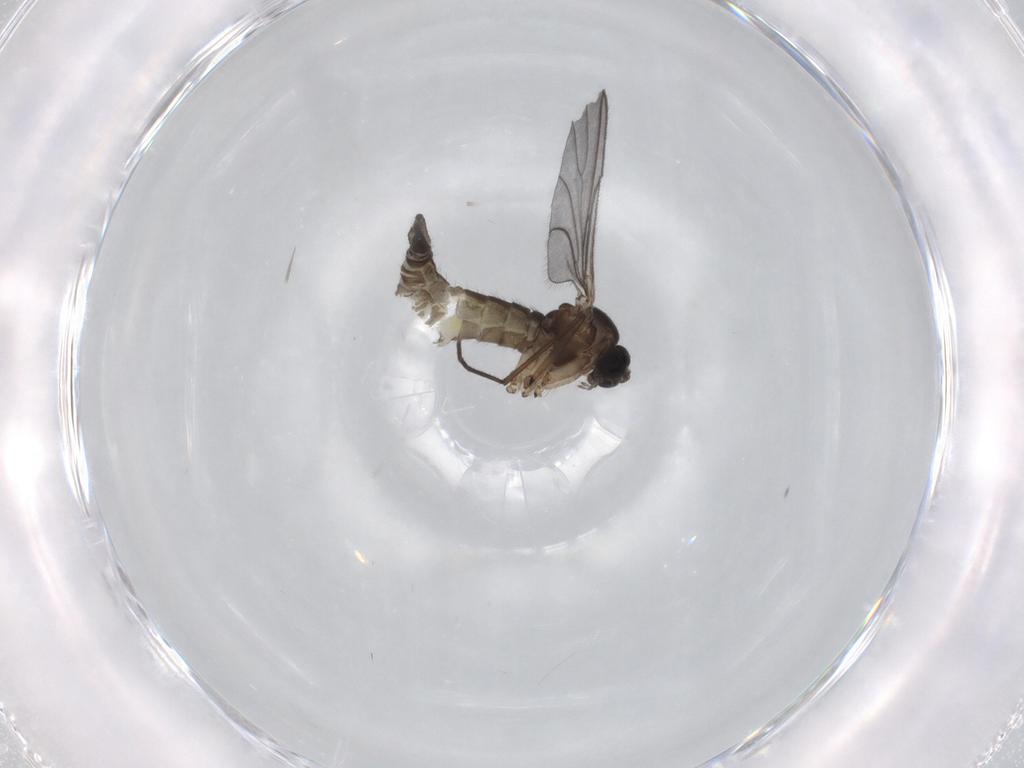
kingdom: Animalia
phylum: Arthropoda
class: Insecta
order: Diptera
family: Sciaridae
